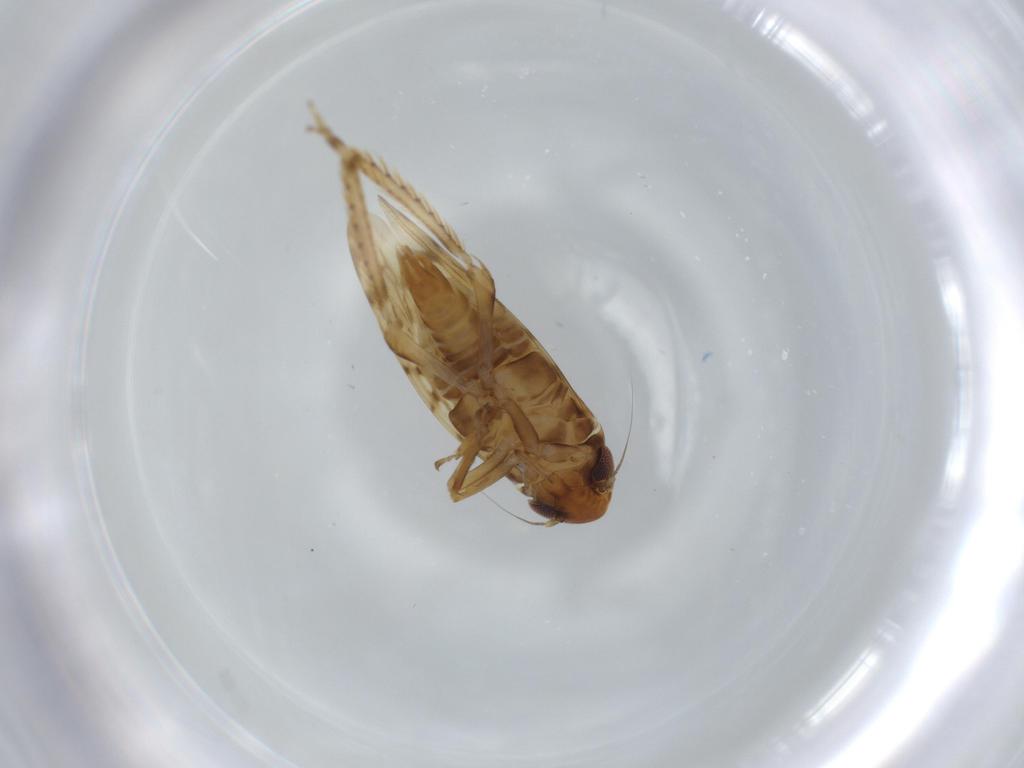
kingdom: Animalia
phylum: Arthropoda
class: Insecta
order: Hemiptera
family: Cicadellidae
